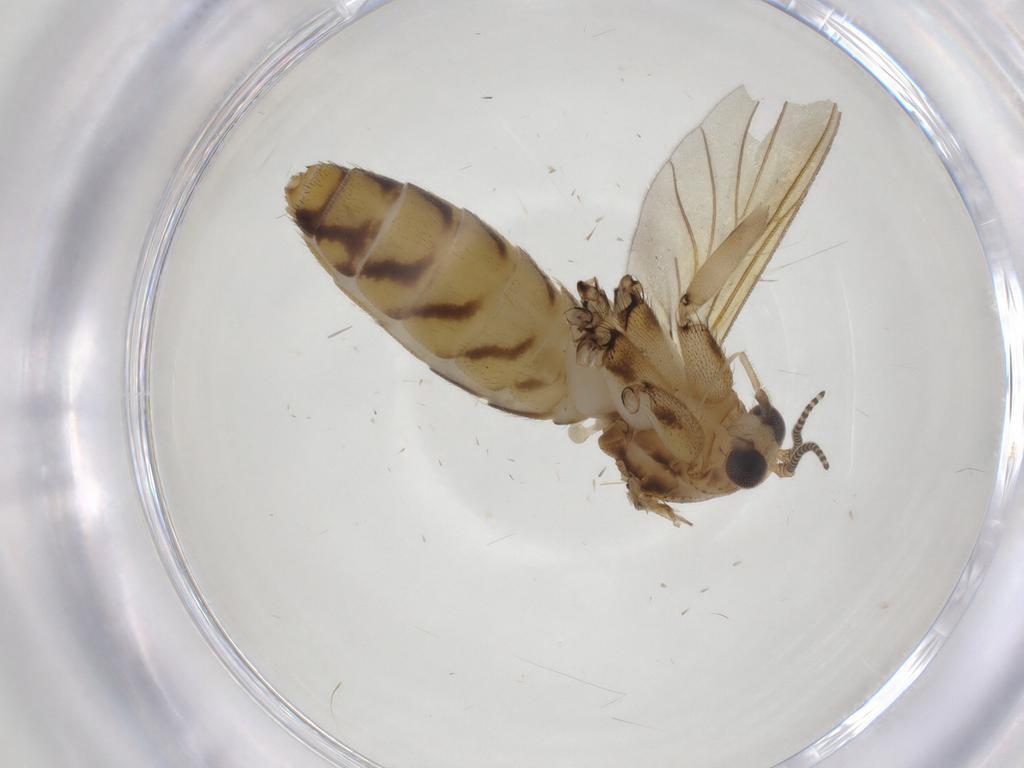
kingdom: Animalia
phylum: Arthropoda
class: Insecta
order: Diptera
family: Mycetophilidae
